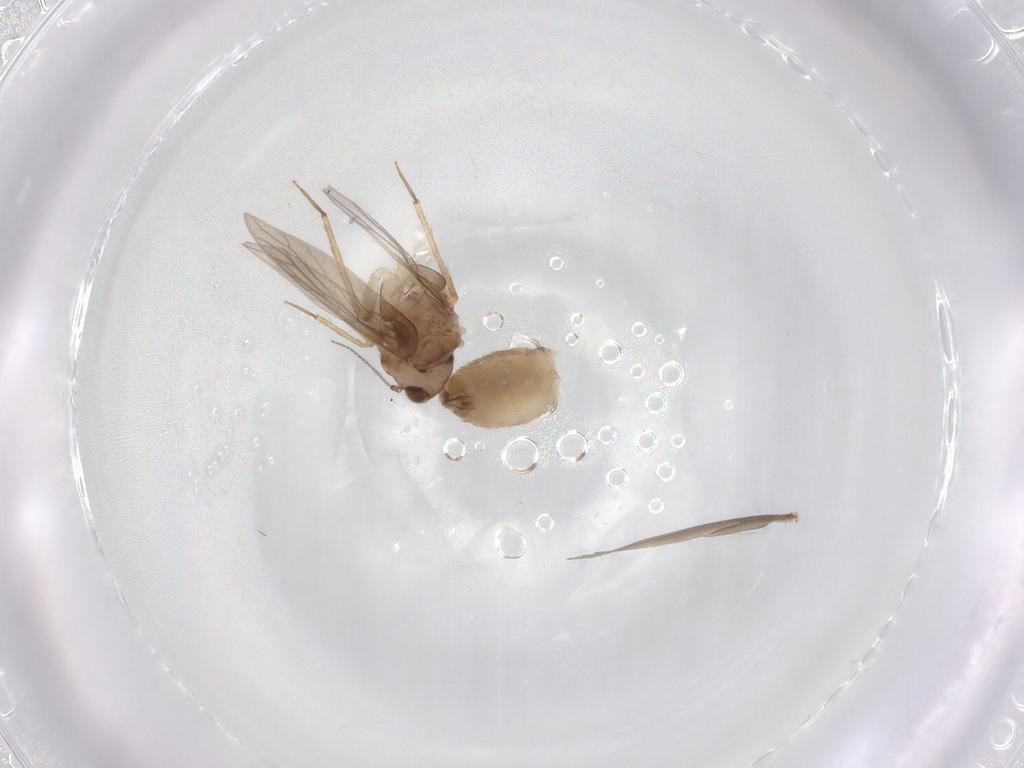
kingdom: Animalia
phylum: Arthropoda
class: Insecta
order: Psocodea
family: Lepidopsocidae
